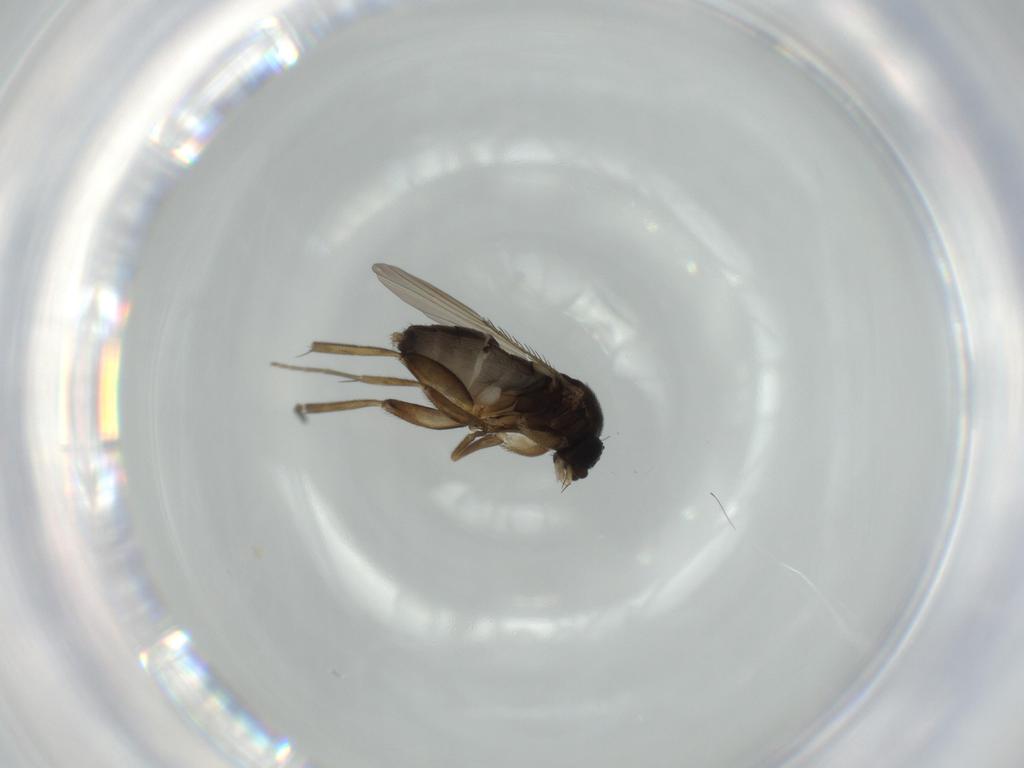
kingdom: Animalia
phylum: Arthropoda
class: Insecta
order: Diptera
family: Phoridae
